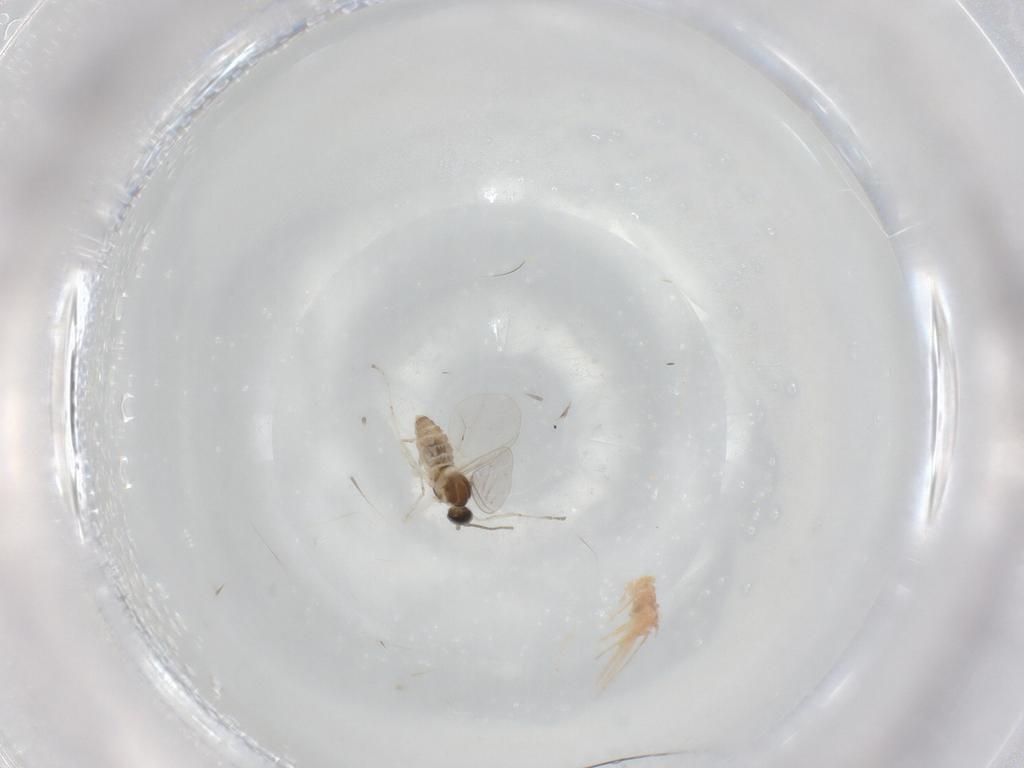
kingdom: Animalia
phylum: Arthropoda
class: Insecta
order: Diptera
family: Cecidomyiidae
